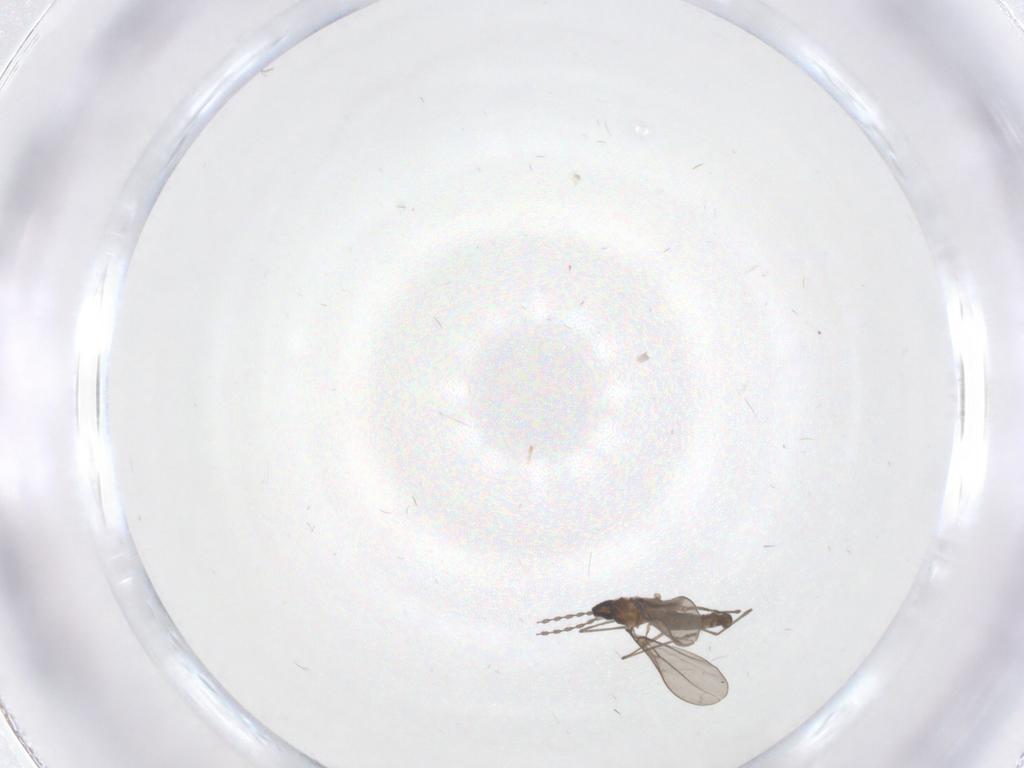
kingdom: Animalia
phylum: Arthropoda
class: Insecta
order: Diptera
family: Cecidomyiidae
